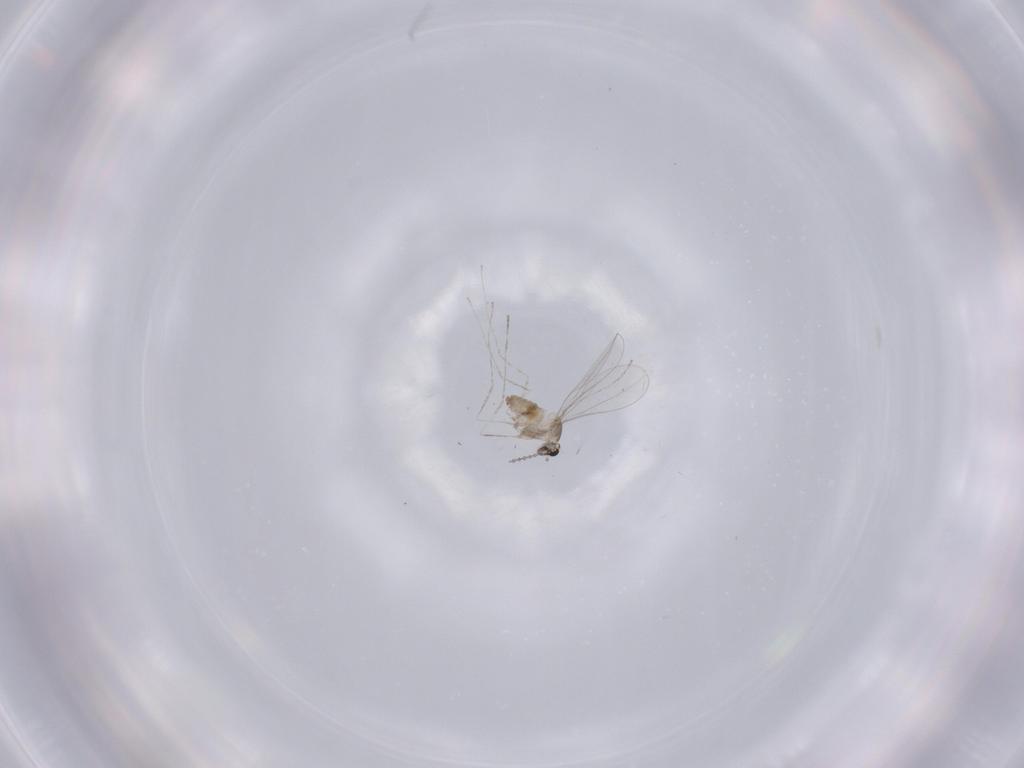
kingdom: Animalia
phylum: Arthropoda
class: Insecta
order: Diptera
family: Cecidomyiidae
